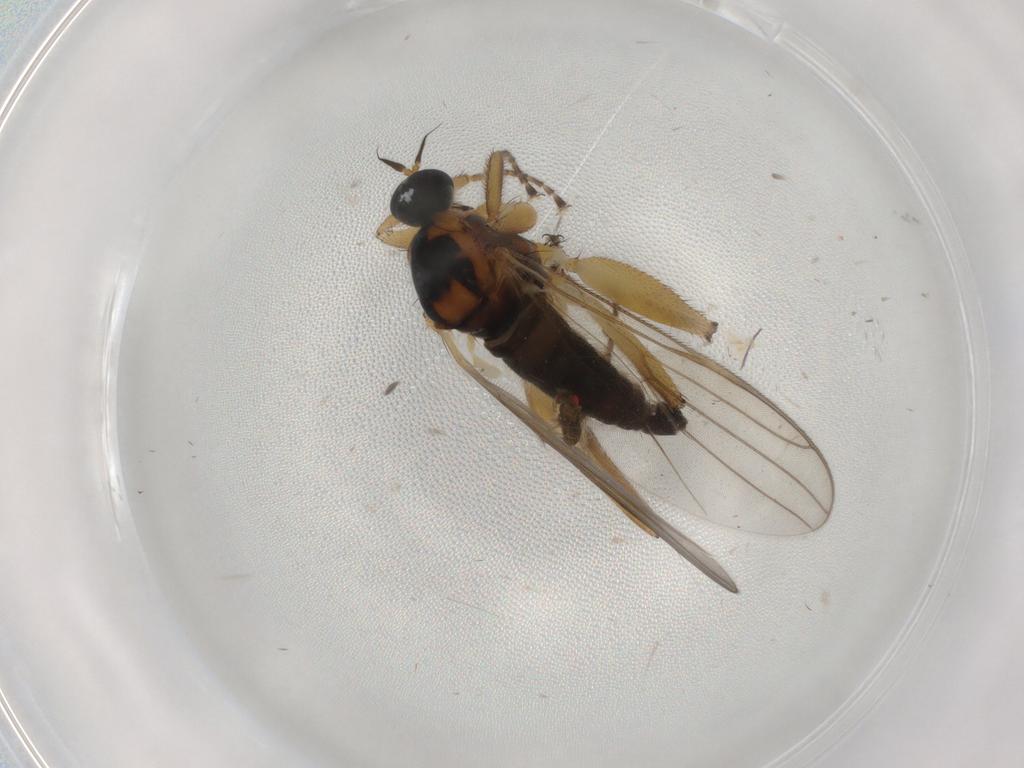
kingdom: Animalia
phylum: Arthropoda
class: Insecta
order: Diptera
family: Hybotidae
